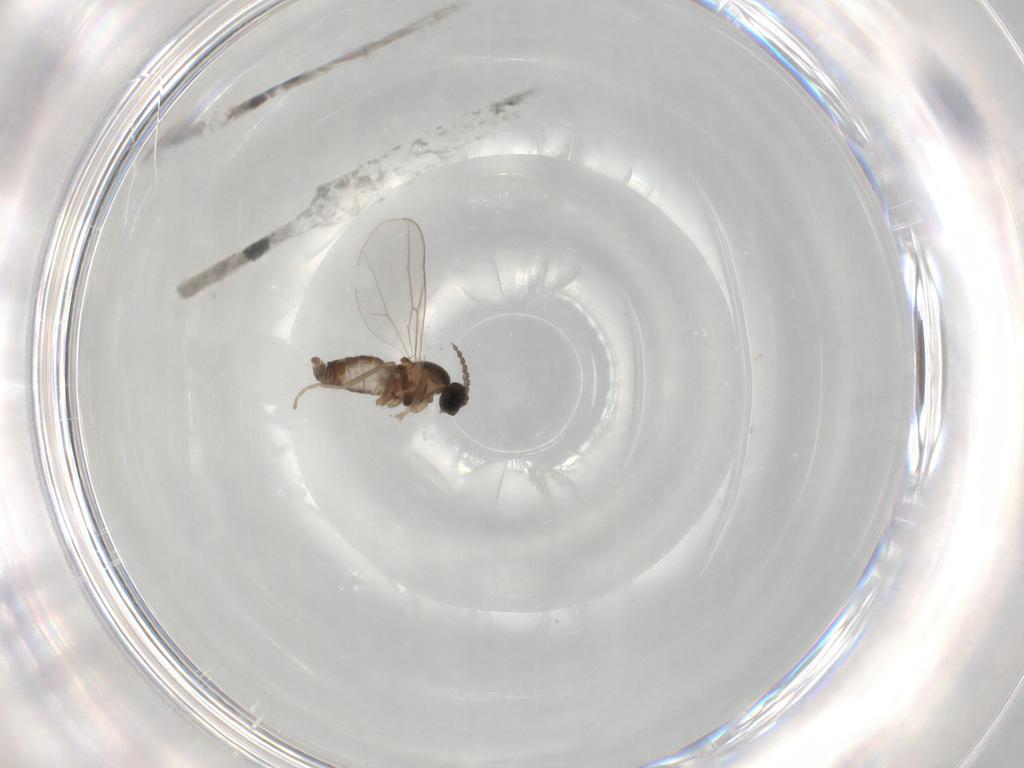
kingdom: Animalia
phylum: Arthropoda
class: Insecta
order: Diptera
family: Cecidomyiidae
